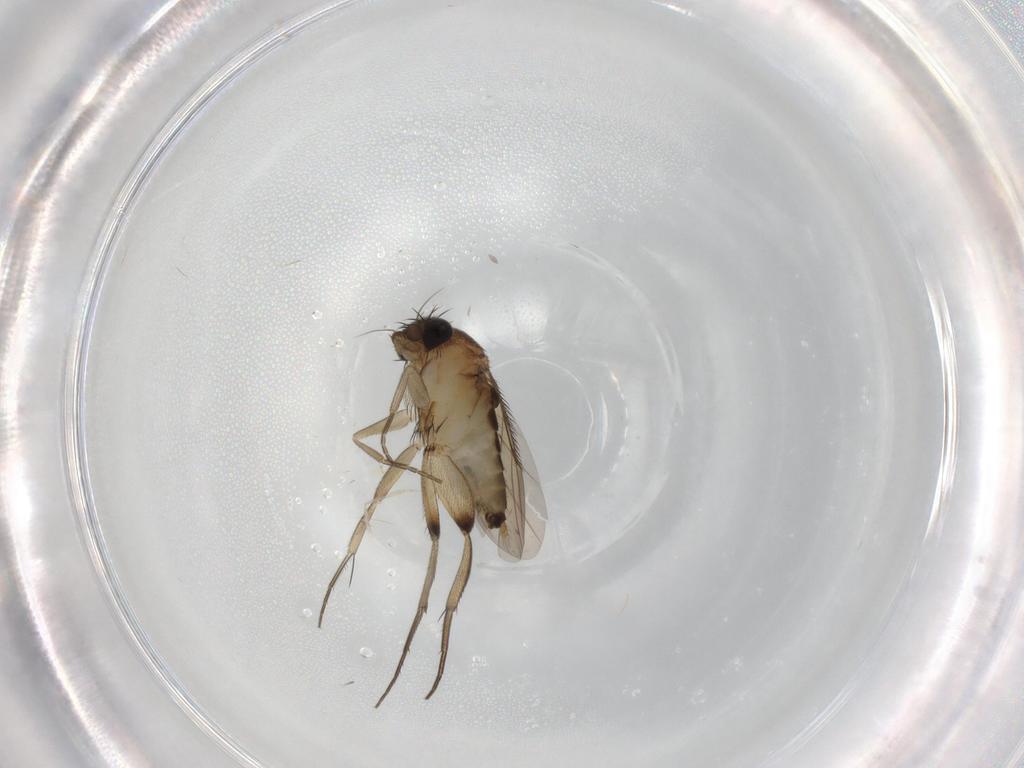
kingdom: Animalia
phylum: Arthropoda
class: Insecta
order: Diptera
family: Phoridae
